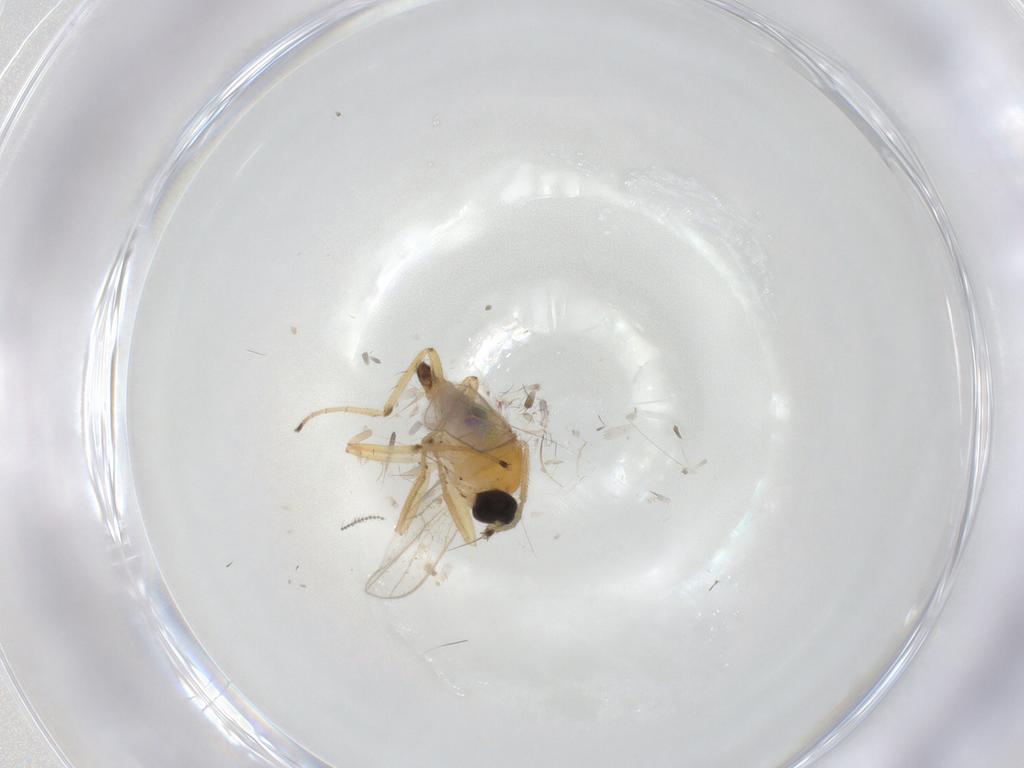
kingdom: Animalia
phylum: Arthropoda
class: Insecta
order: Diptera
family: Hybotidae
